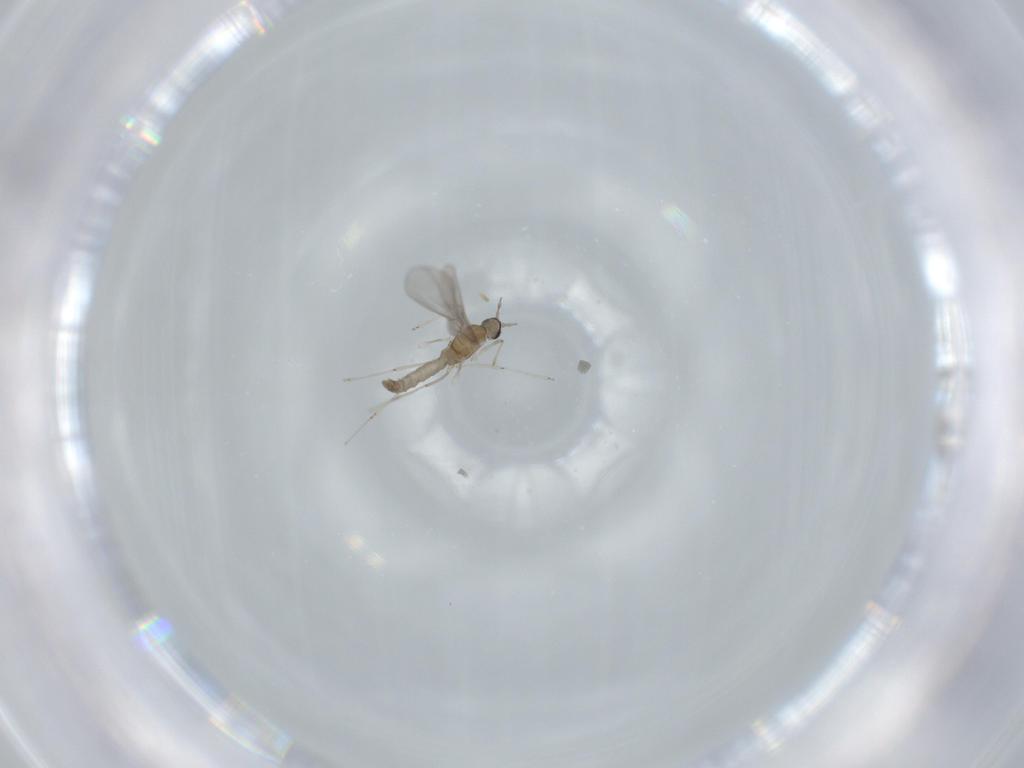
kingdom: Animalia
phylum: Arthropoda
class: Insecta
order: Diptera
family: Cecidomyiidae
